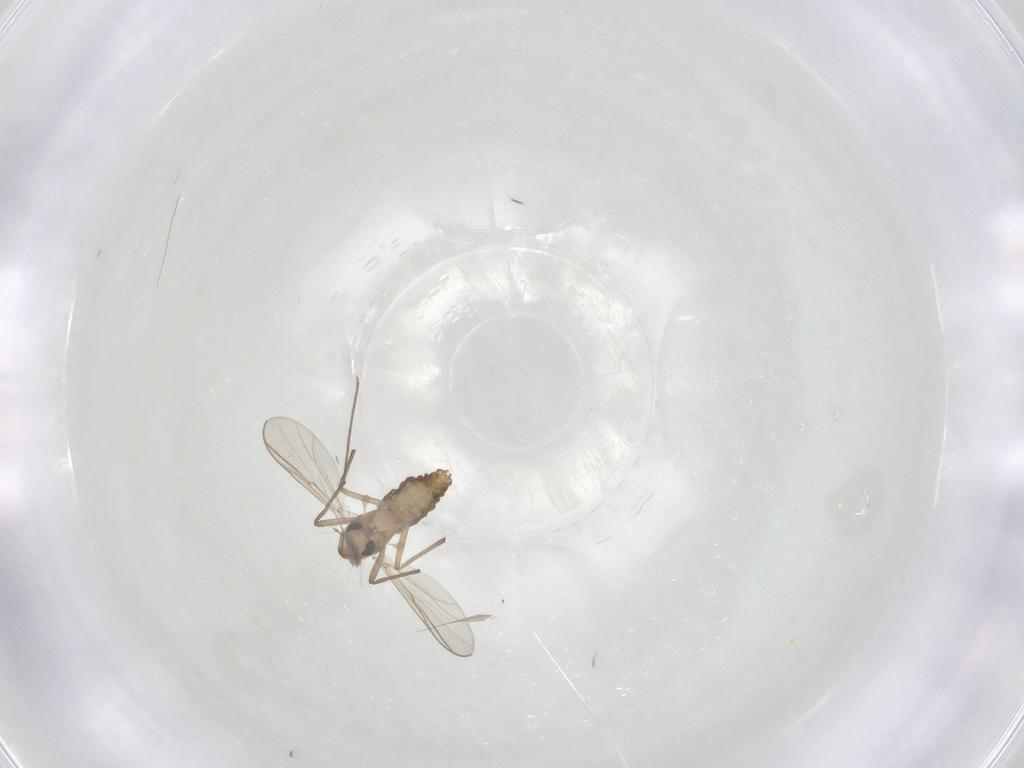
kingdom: Animalia
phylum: Arthropoda
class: Insecta
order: Diptera
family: Cecidomyiidae
